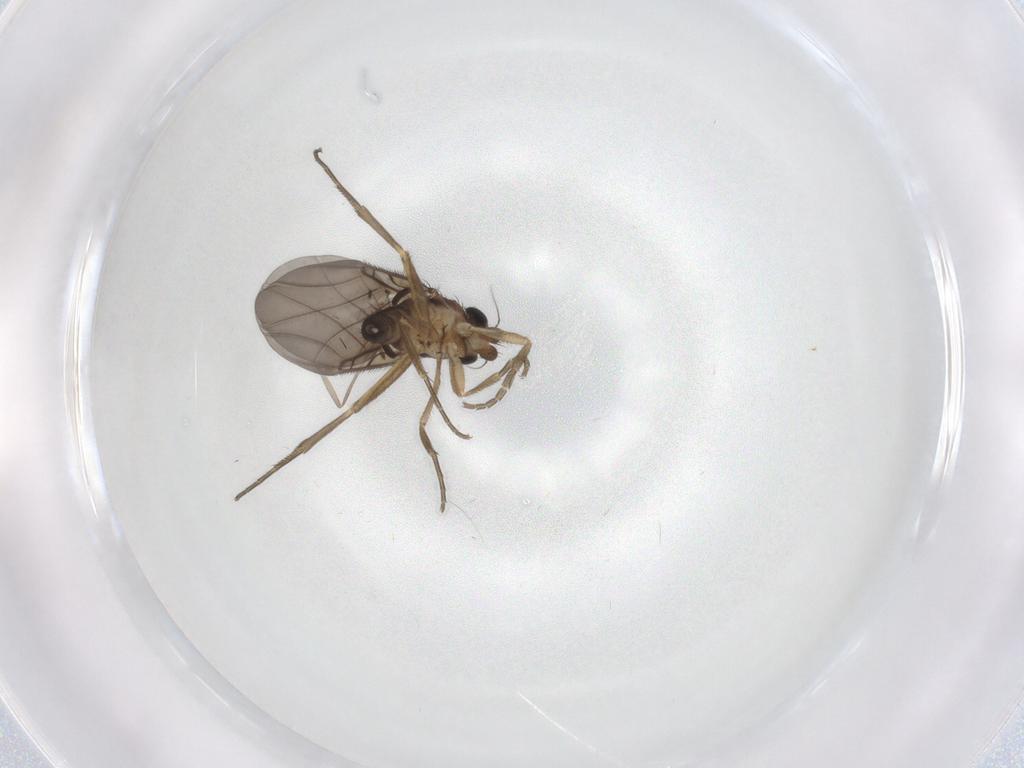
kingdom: Animalia
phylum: Arthropoda
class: Insecta
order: Diptera
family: Phoridae
